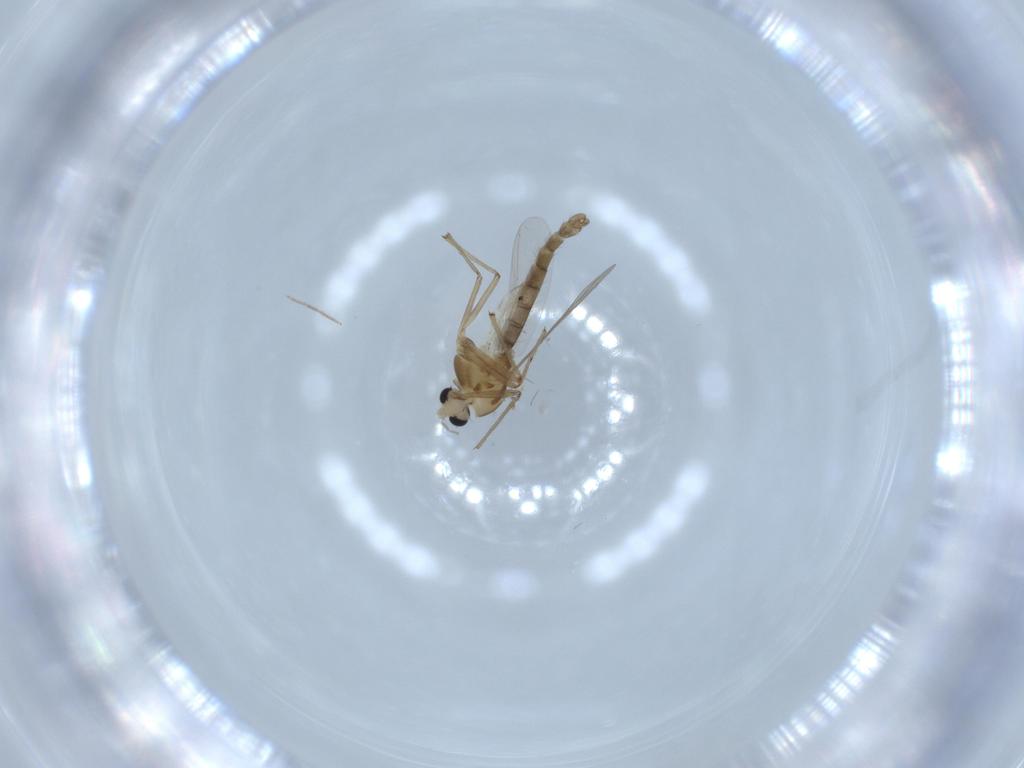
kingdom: Animalia
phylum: Arthropoda
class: Insecta
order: Diptera
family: Chironomidae
